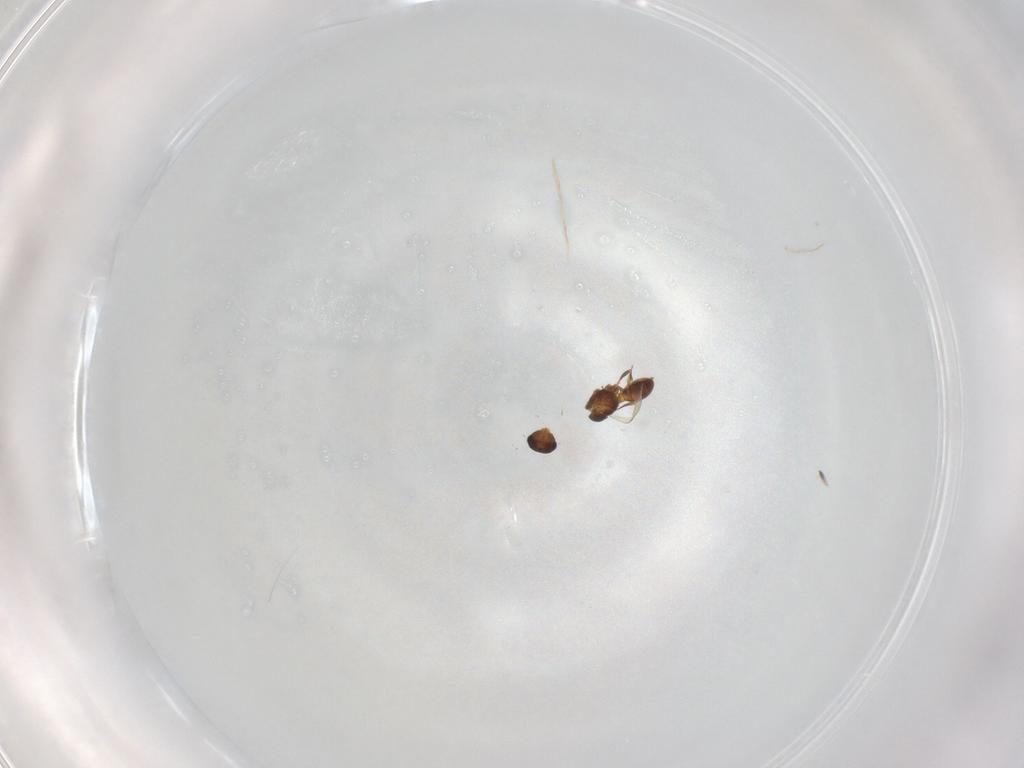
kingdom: Animalia
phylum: Arthropoda
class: Insecta
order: Hymenoptera
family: Scelionidae
